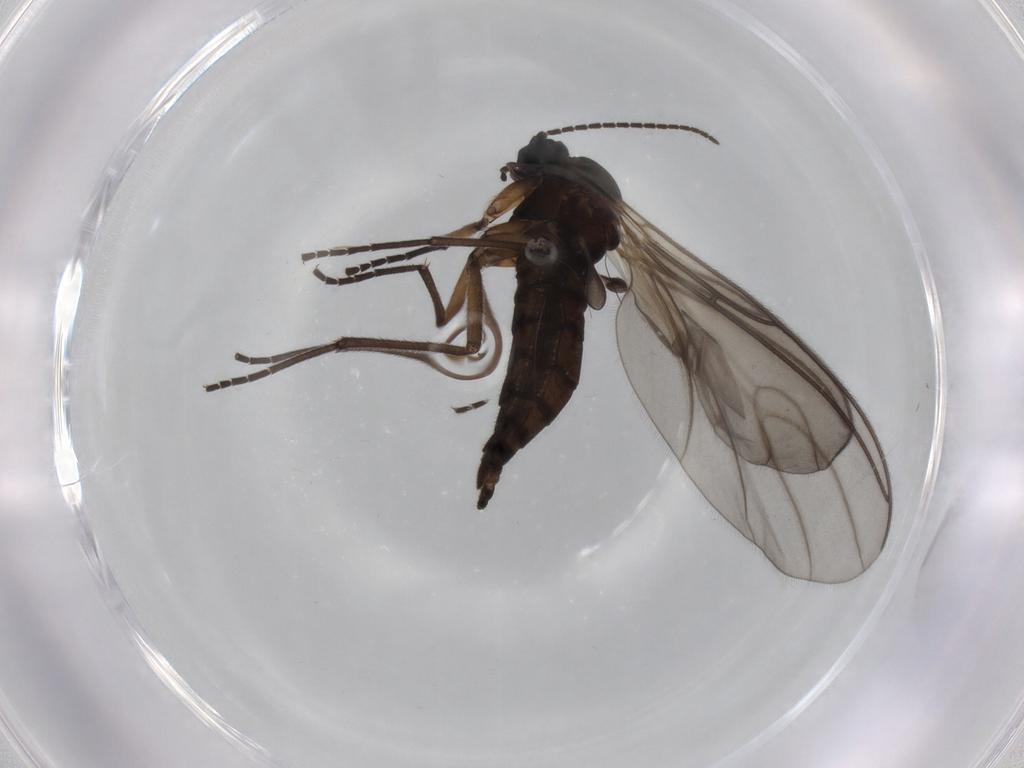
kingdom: Animalia
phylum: Arthropoda
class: Insecta
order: Diptera
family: Sciaridae
